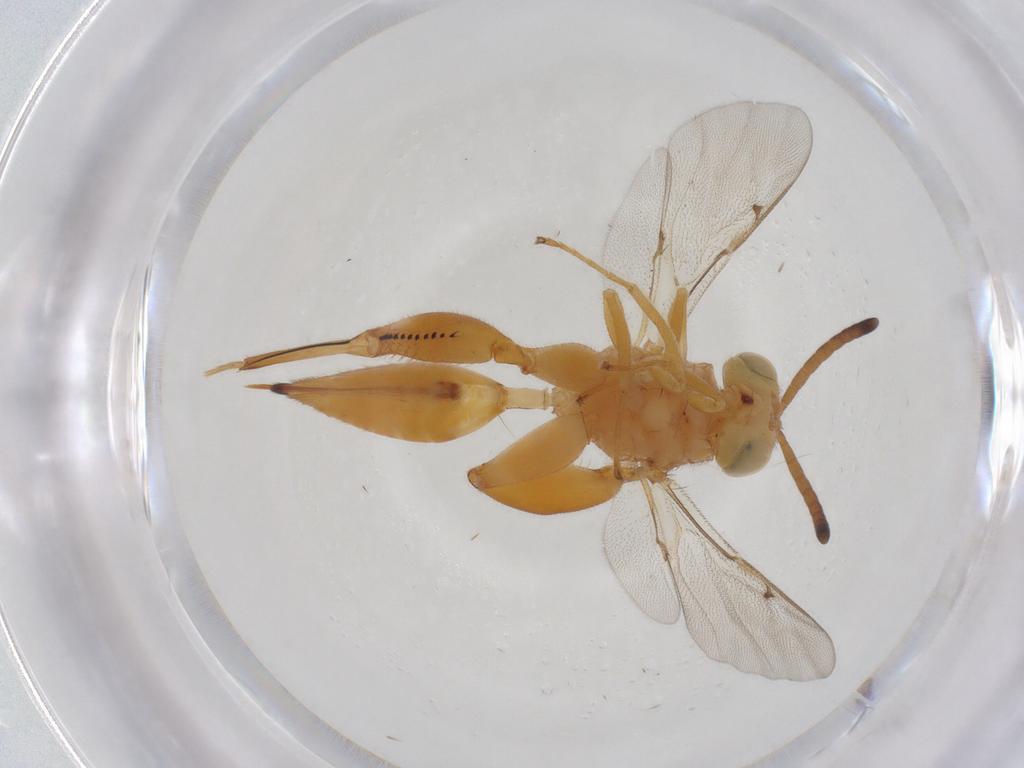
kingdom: Animalia
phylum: Arthropoda
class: Insecta
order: Hymenoptera
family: Chalcididae
